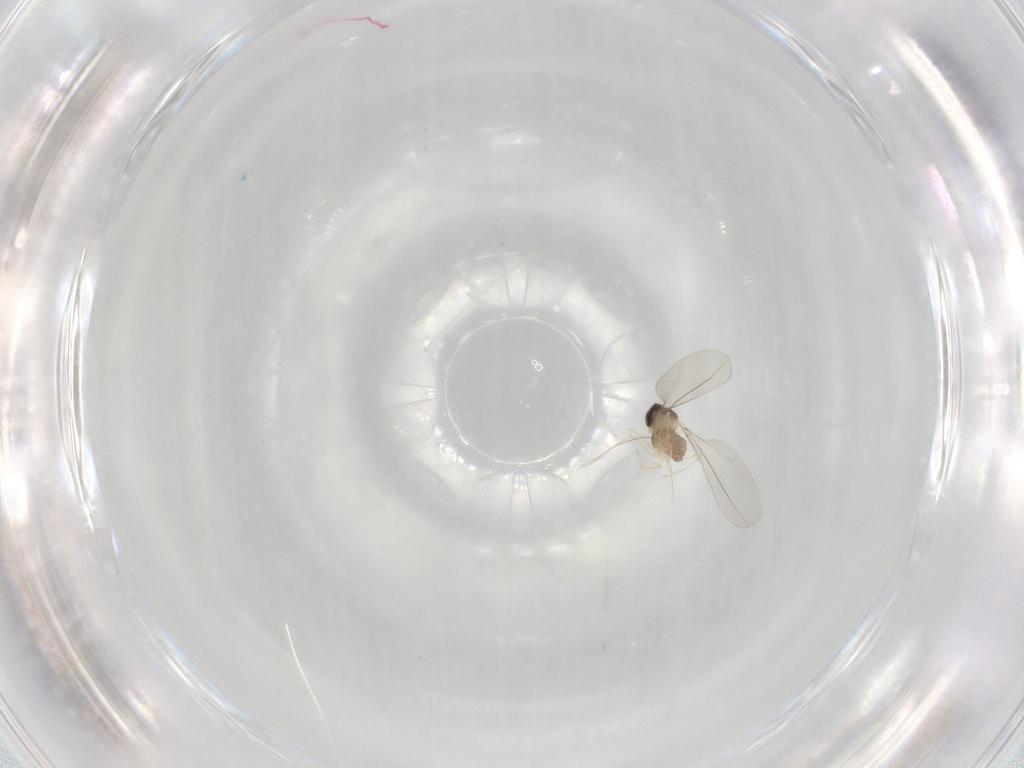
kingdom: Animalia
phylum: Arthropoda
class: Insecta
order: Diptera
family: Cecidomyiidae
